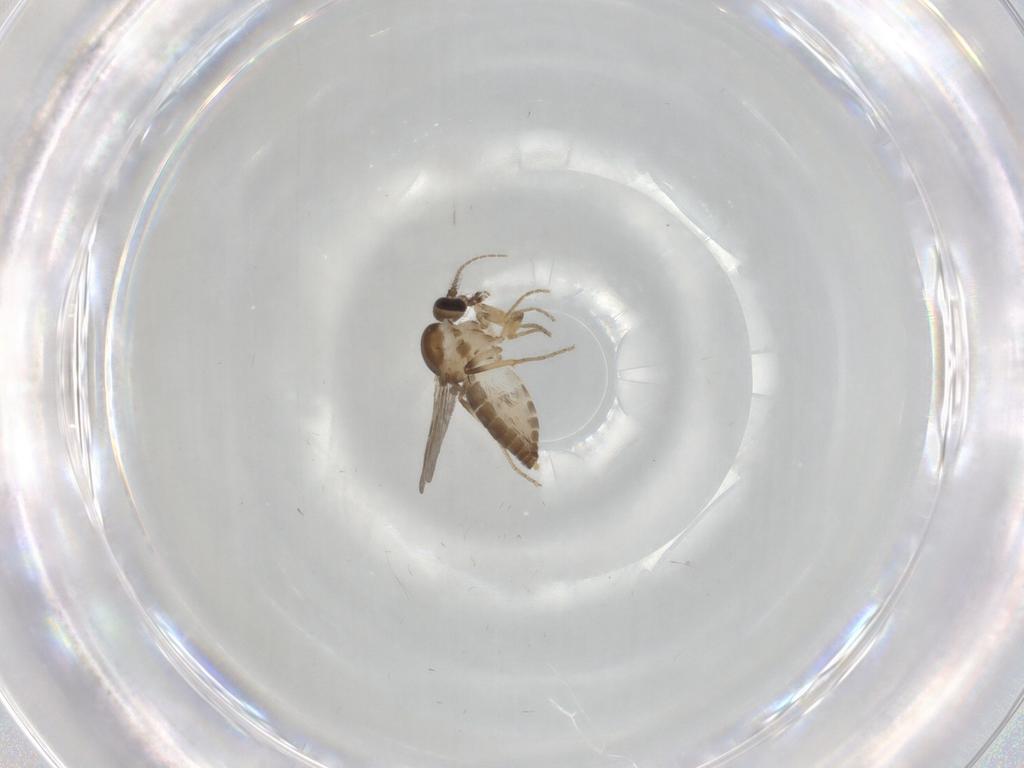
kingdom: Animalia
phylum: Arthropoda
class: Insecta
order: Diptera
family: Ceratopogonidae
